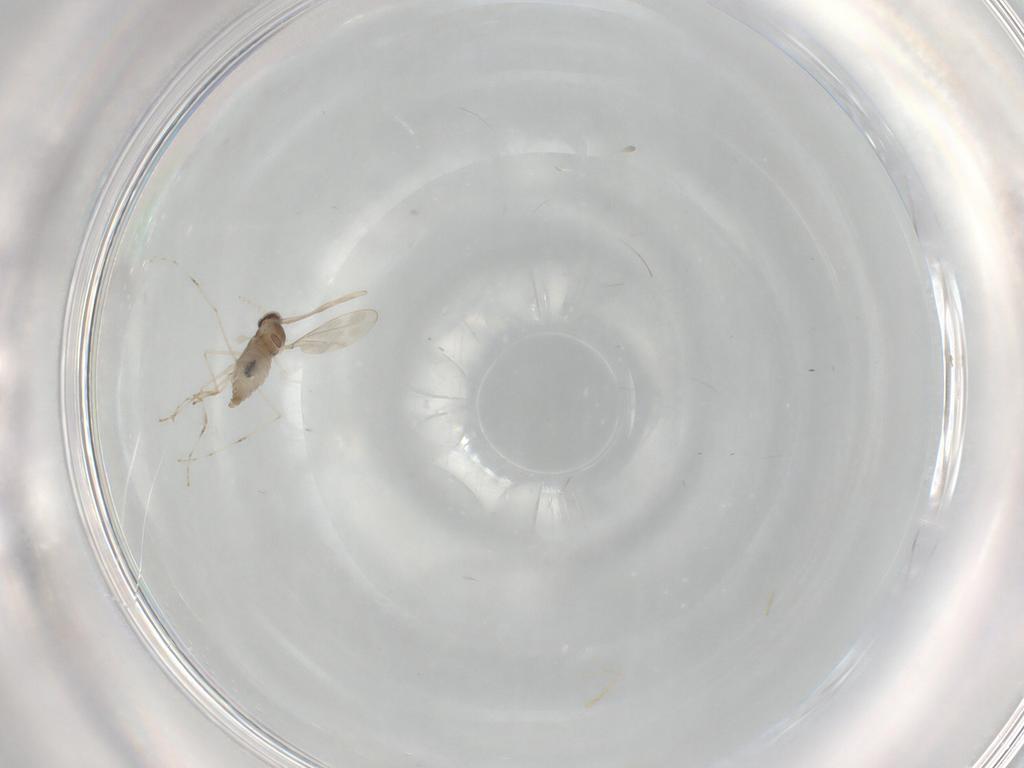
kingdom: Animalia
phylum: Arthropoda
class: Insecta
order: Diptera
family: Cecidomyiidae
